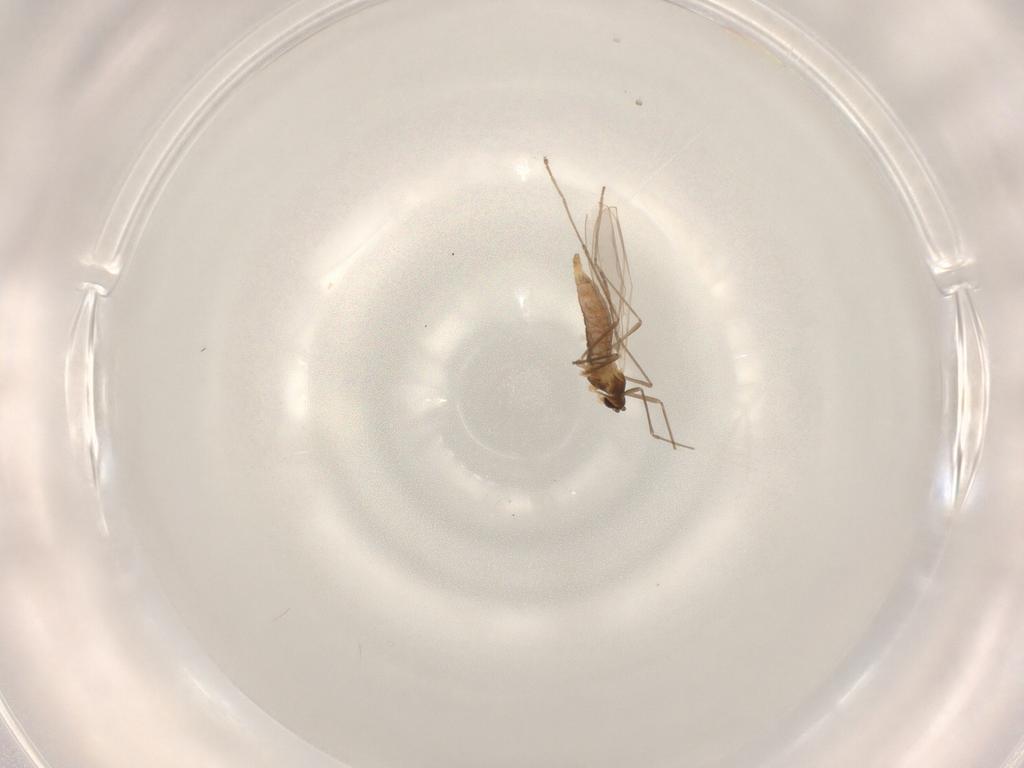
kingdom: Animalia
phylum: Arthropoda
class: Insecta
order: Diptera
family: Cecidomyiidae
